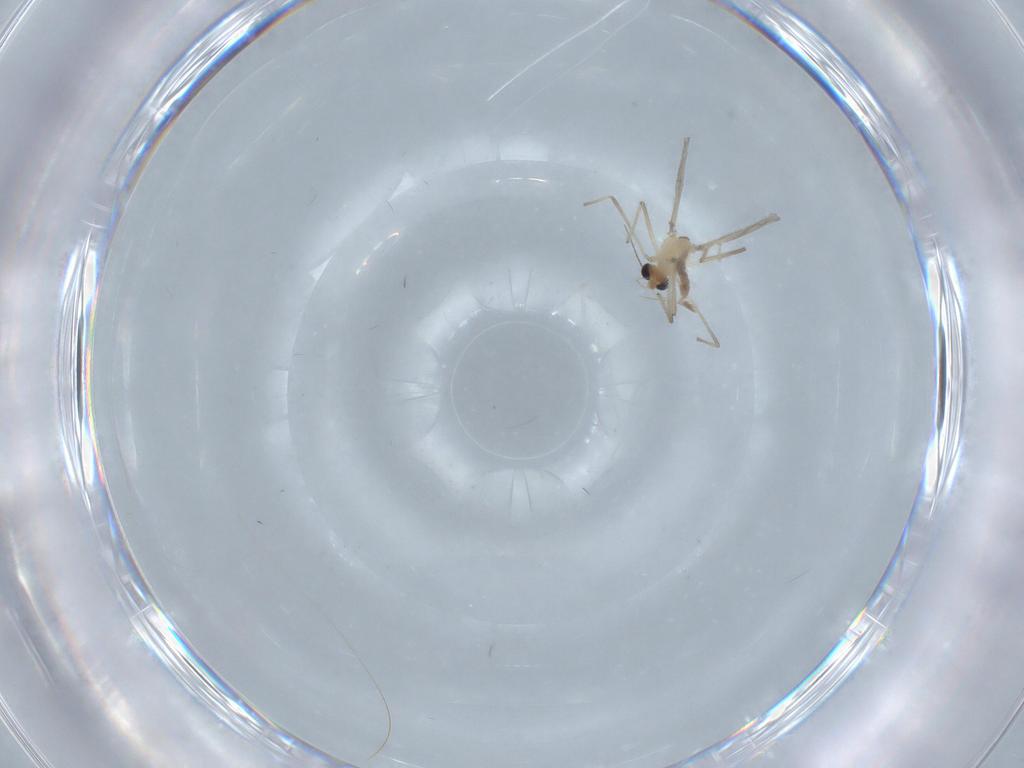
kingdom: Animalia
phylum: Arthropoda
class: Insecta
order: Diptera
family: Chironomidae
